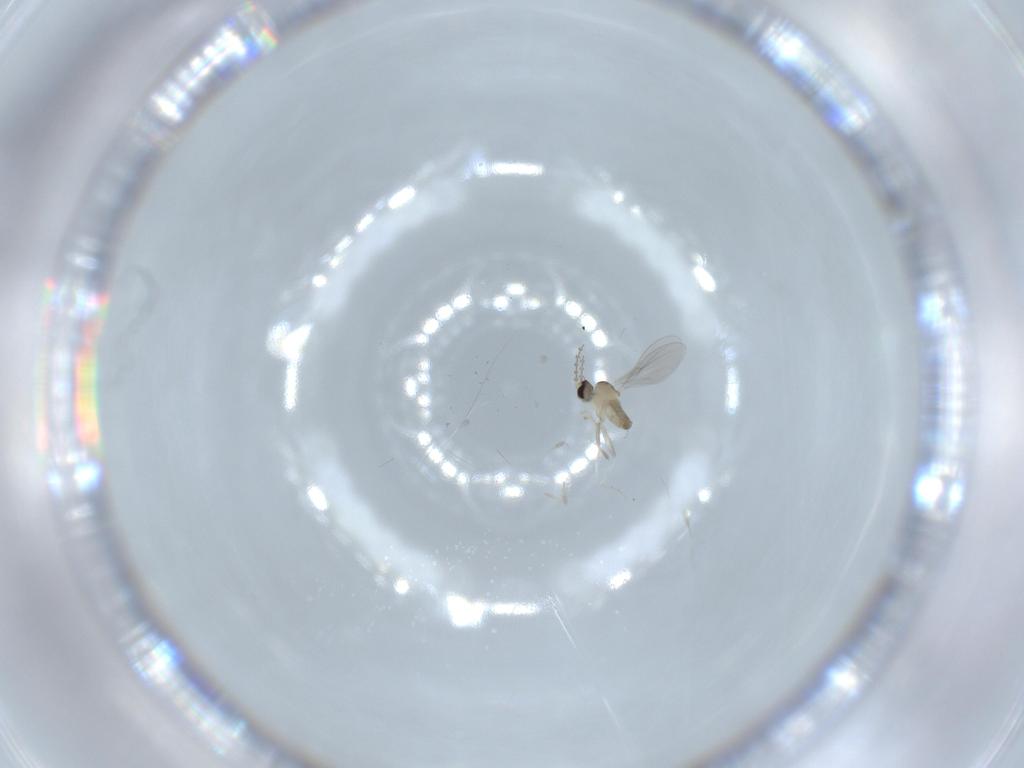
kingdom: Animalia
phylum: Arthropoda
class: Insecta
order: Diptera
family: Cecidomyiidae
